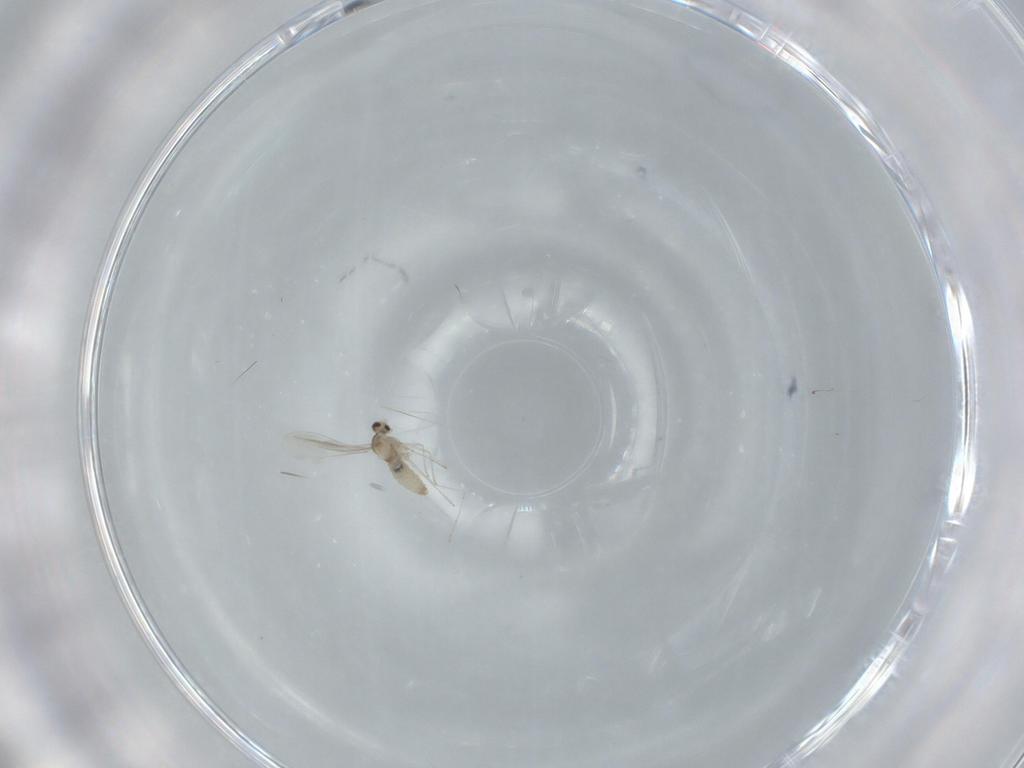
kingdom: Animalia
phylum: Arthropoda
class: Insecta
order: Diptera
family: Cecidomyiidae
